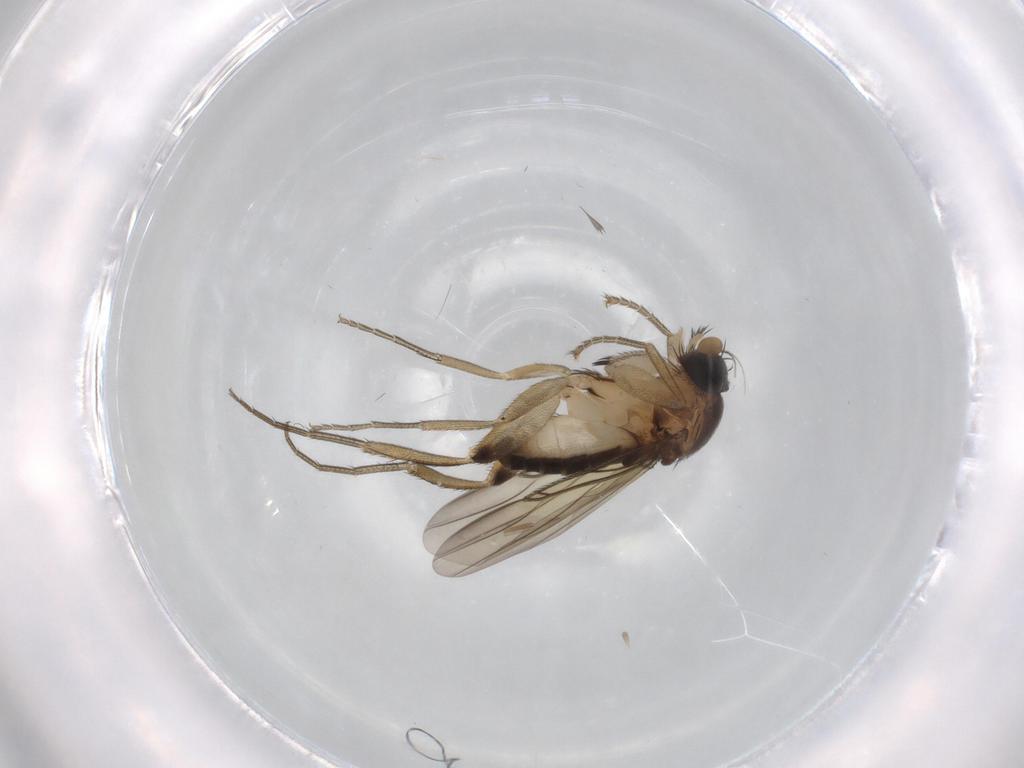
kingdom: Animalia
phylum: Arthropoda
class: Insecta
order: Diptera
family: Phoridae
